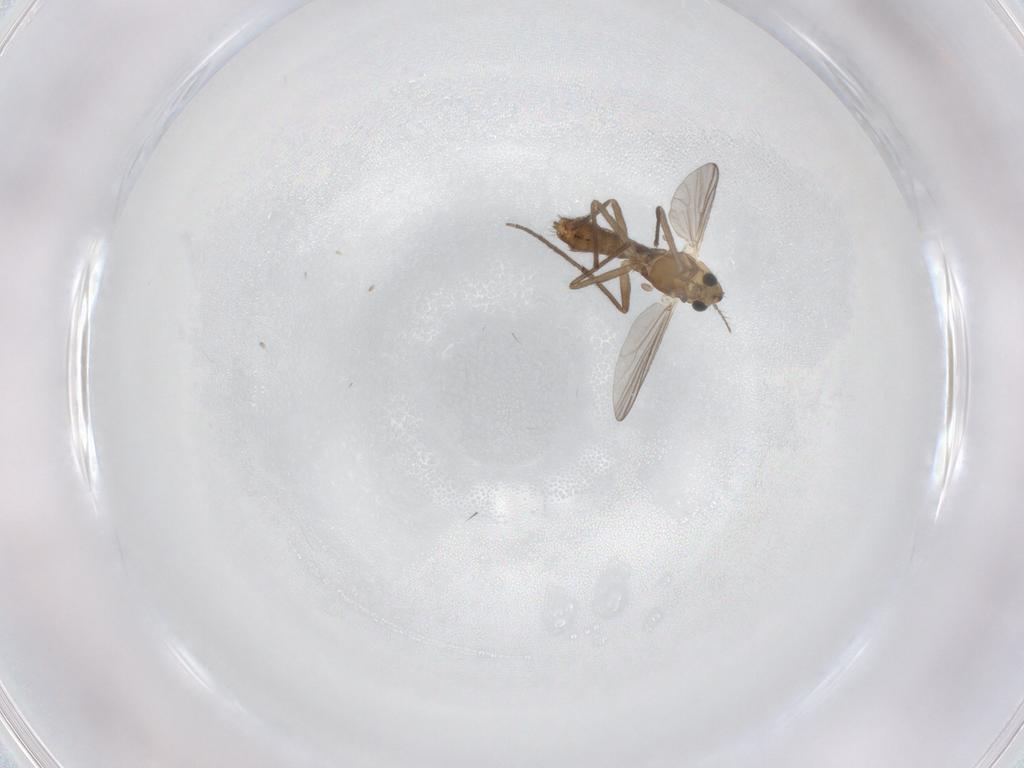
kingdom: Animalia
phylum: Arthropoda
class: Insecta
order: Diptera
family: Chironomidae
